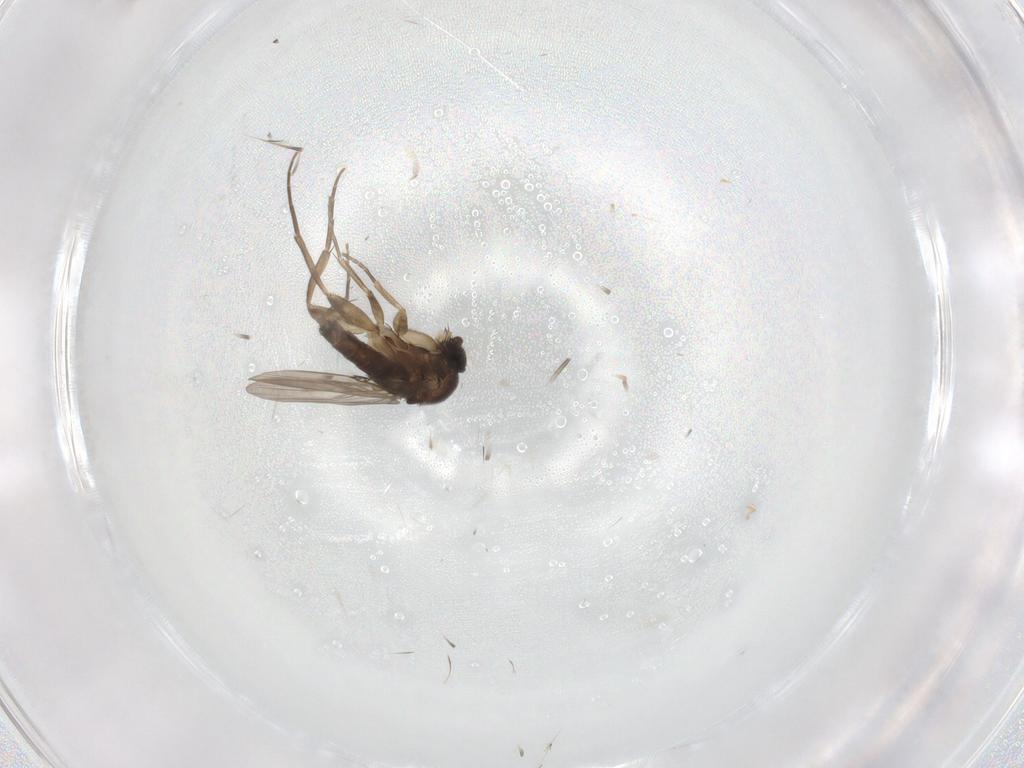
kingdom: Animalia
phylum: Arthropoda
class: Insecta
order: Diptera
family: Phoridae
